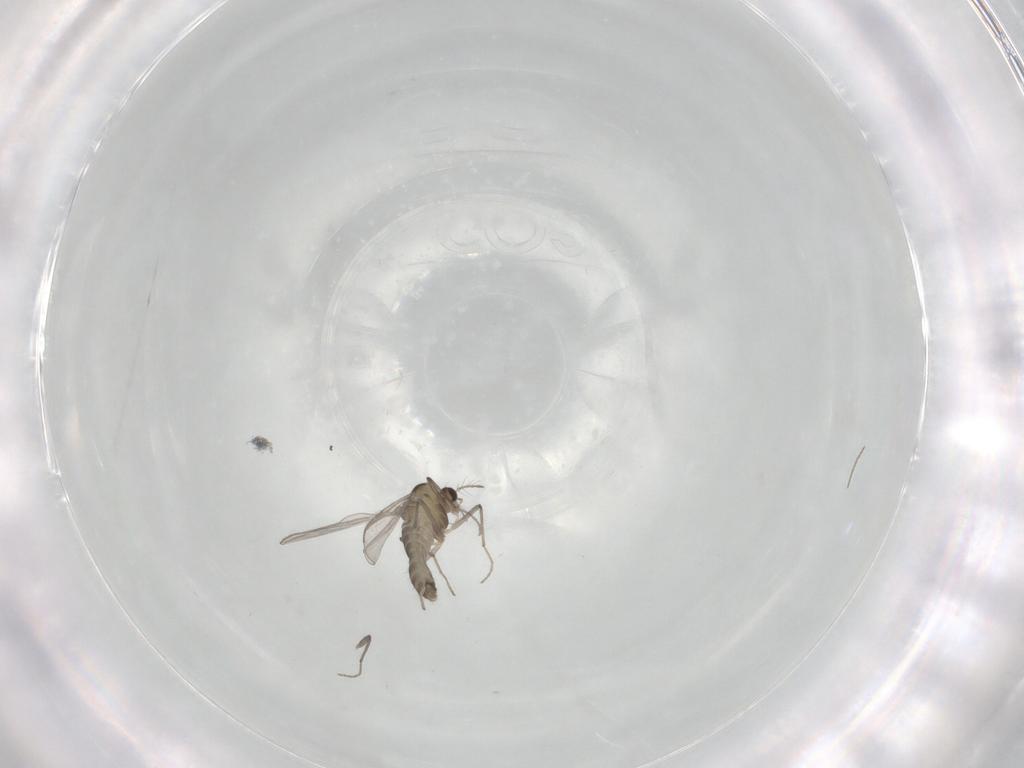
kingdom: Animalia
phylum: Arthropoda
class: Insecta
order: Diptera
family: Chironomidae
